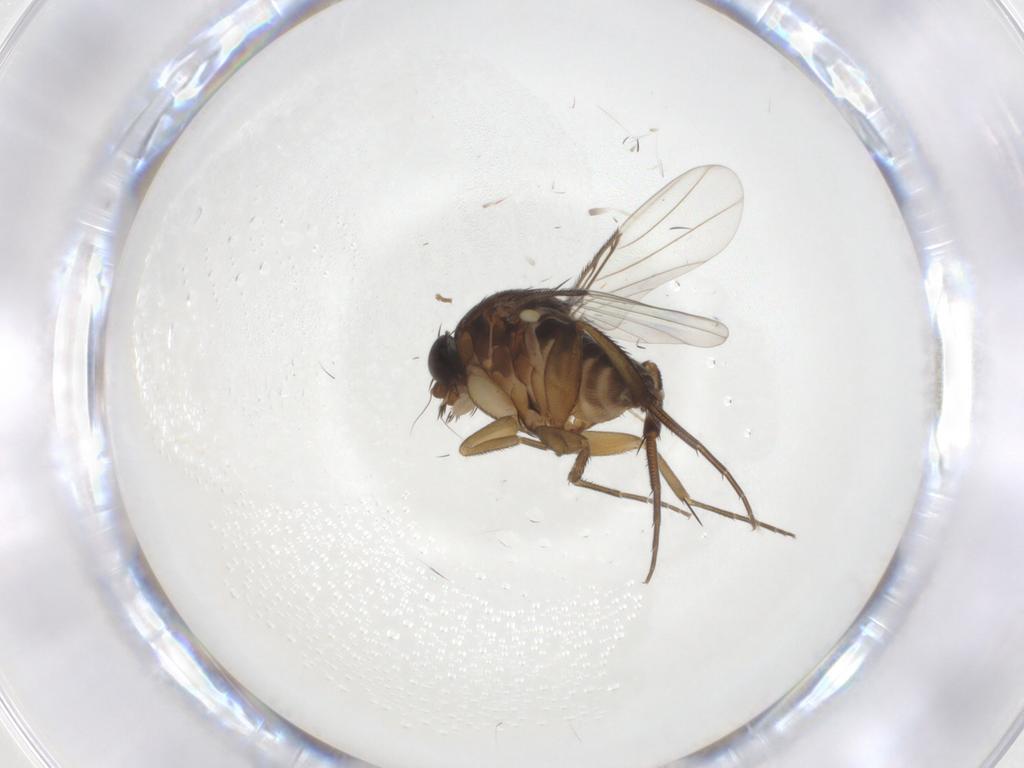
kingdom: Animalia
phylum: Arthropoda
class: Insecta
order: Diptera
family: Phoridae
